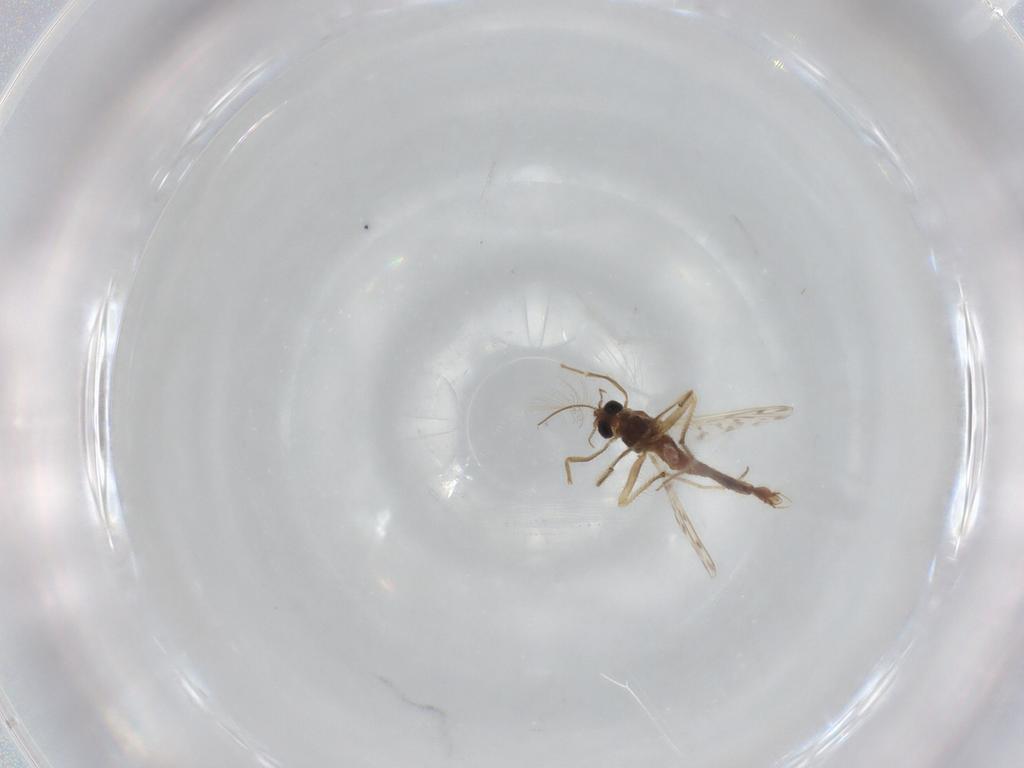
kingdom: Animalia
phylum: Arthropoda
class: Insecta
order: Diptera
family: Chironomidae
